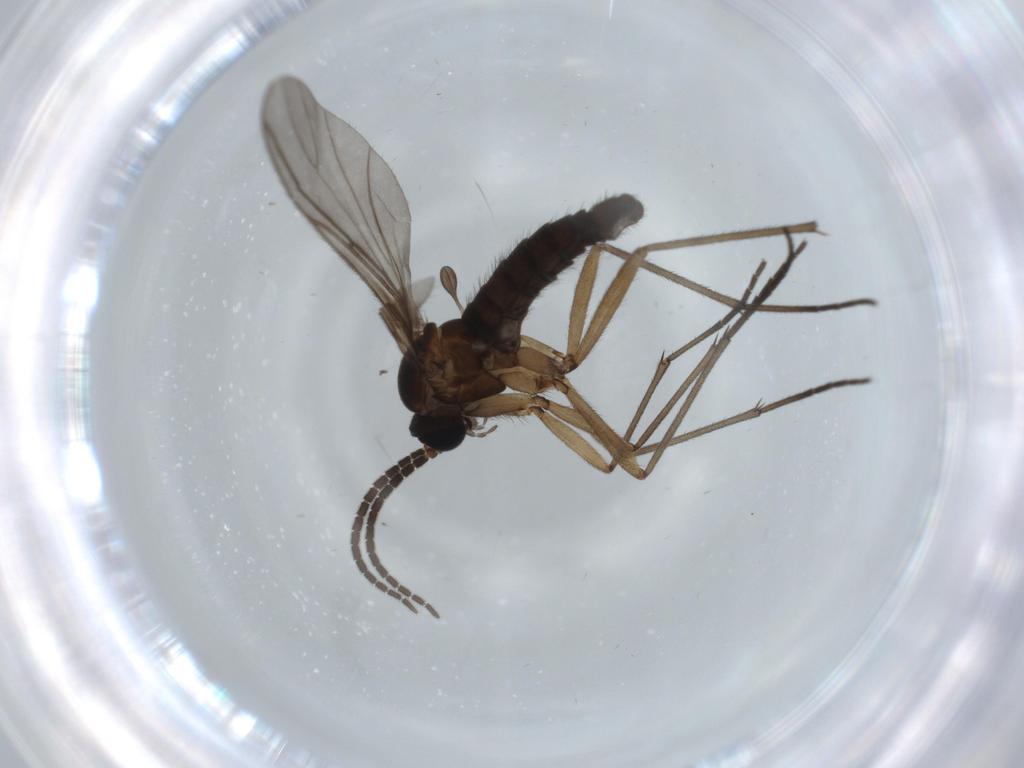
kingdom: Animalia
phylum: Arthropoda
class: Insecta
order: Diptera
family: Sciaridae
